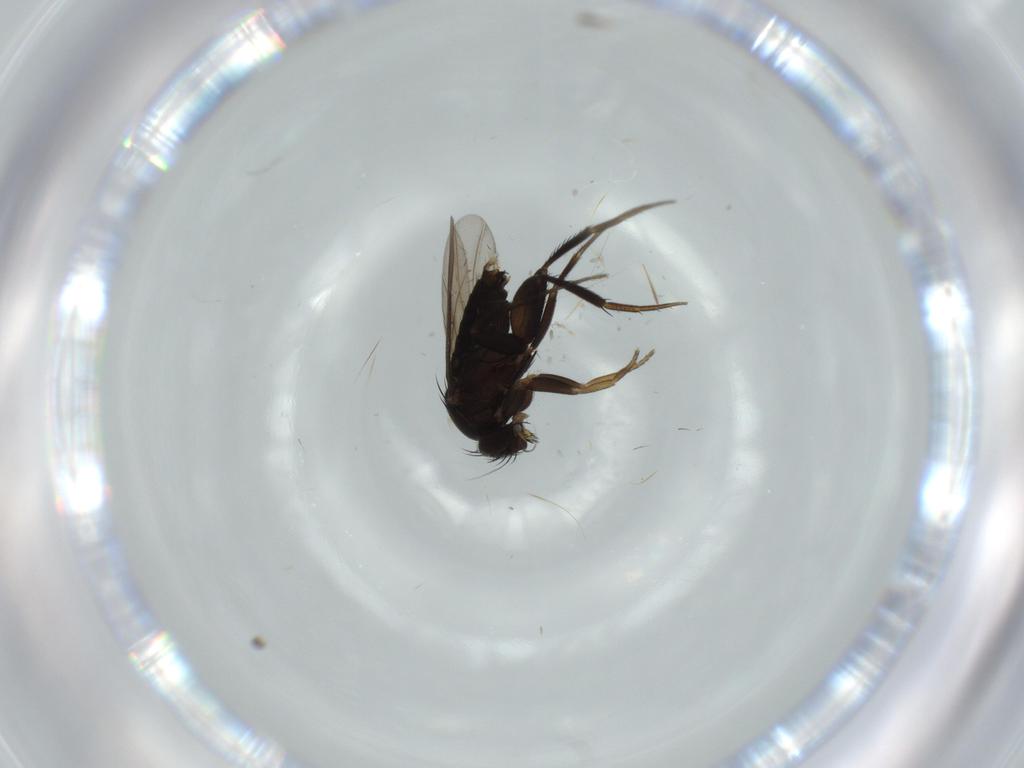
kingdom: Animalia
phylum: Arthropoda
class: Insecta
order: Diptera
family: Phoridae
